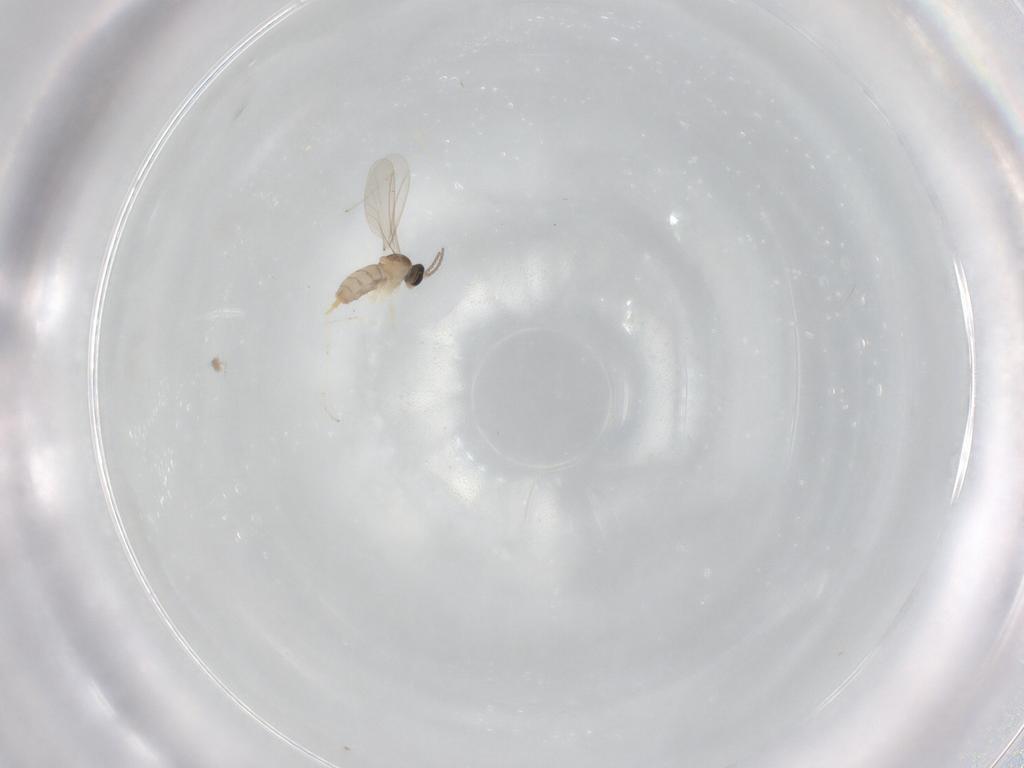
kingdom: Animalia
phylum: Arthropoda
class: Insecta
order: Diptera
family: Cecidomyiidae
